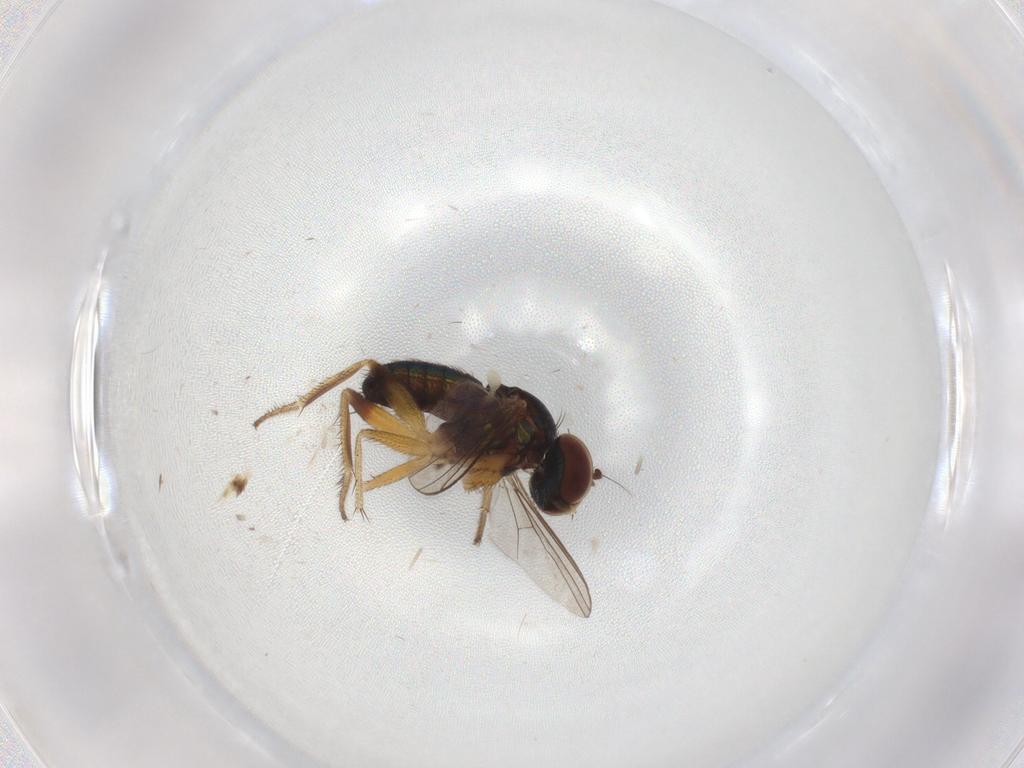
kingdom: Animalia
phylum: Arthropoda
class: Insecta
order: Diptera
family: Dolichopodidae
